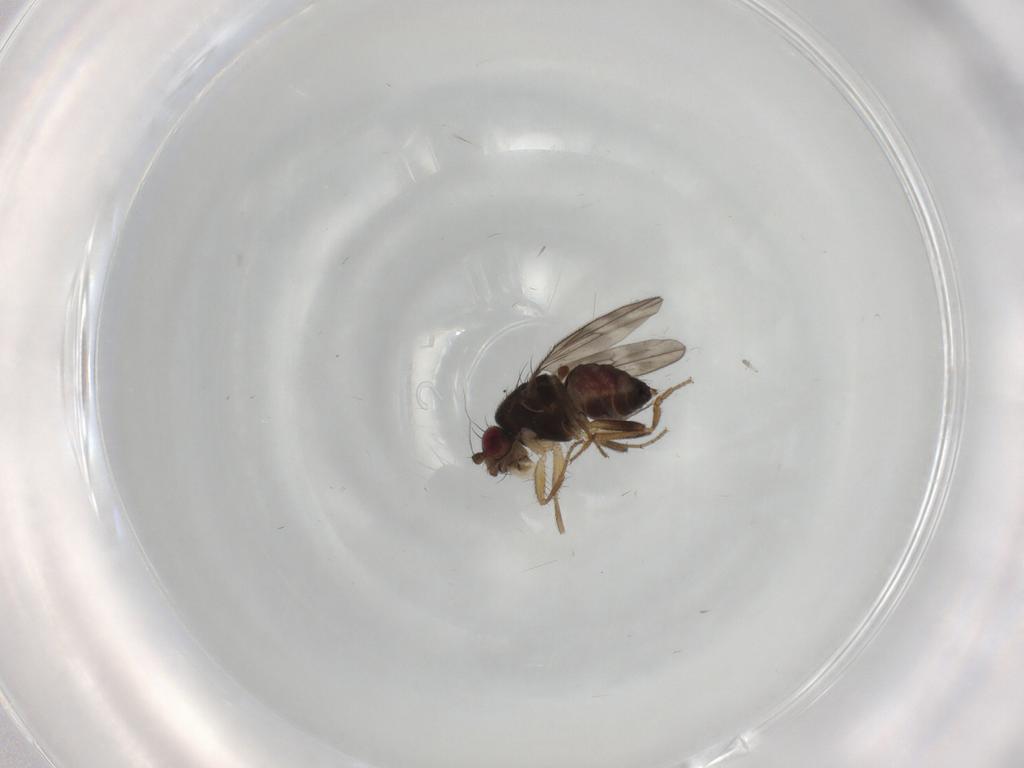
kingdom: Animalia
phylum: Arthropoda
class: Insecta
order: Diptera
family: Sphaeroceridae
